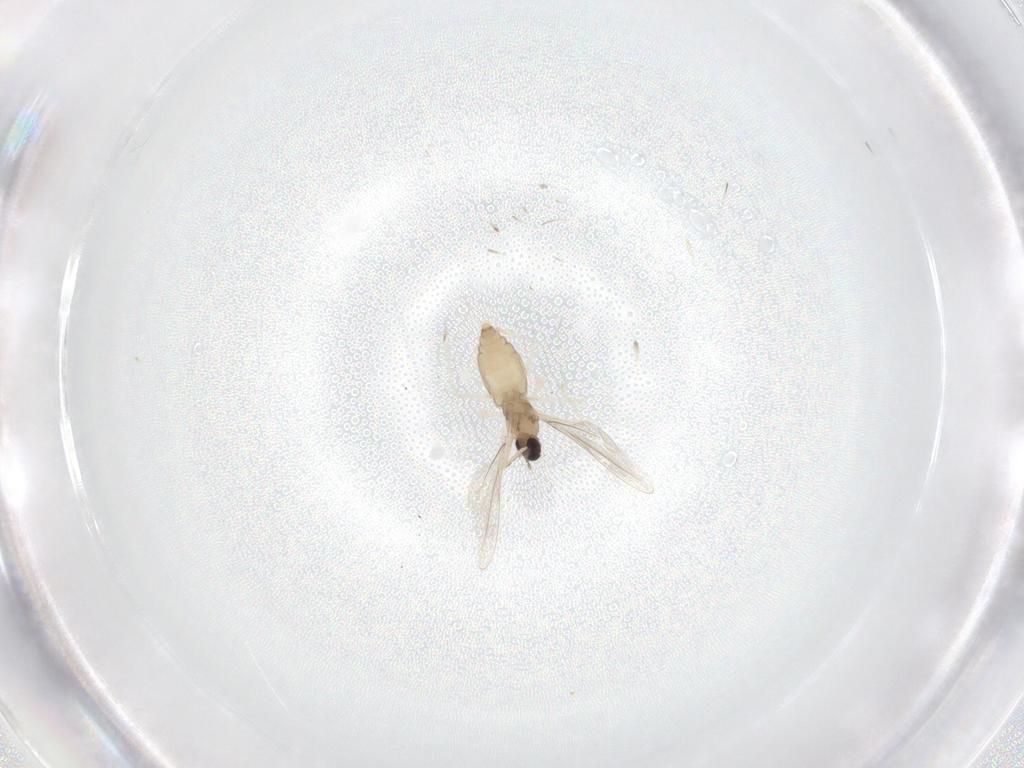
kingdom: Animalia
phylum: Arthropoda
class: Insecta
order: Diptera
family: Cecidomyiidae
